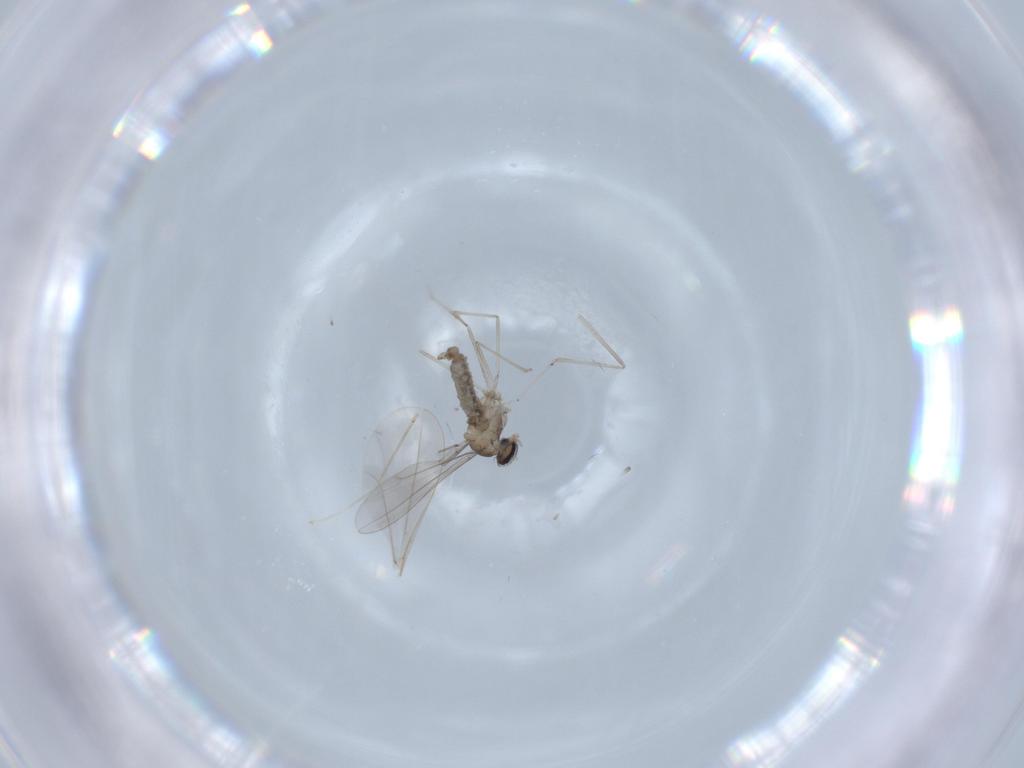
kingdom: Animalia
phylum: Arthropoda
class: Insecta
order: Diptera
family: Cecidomyiidae
